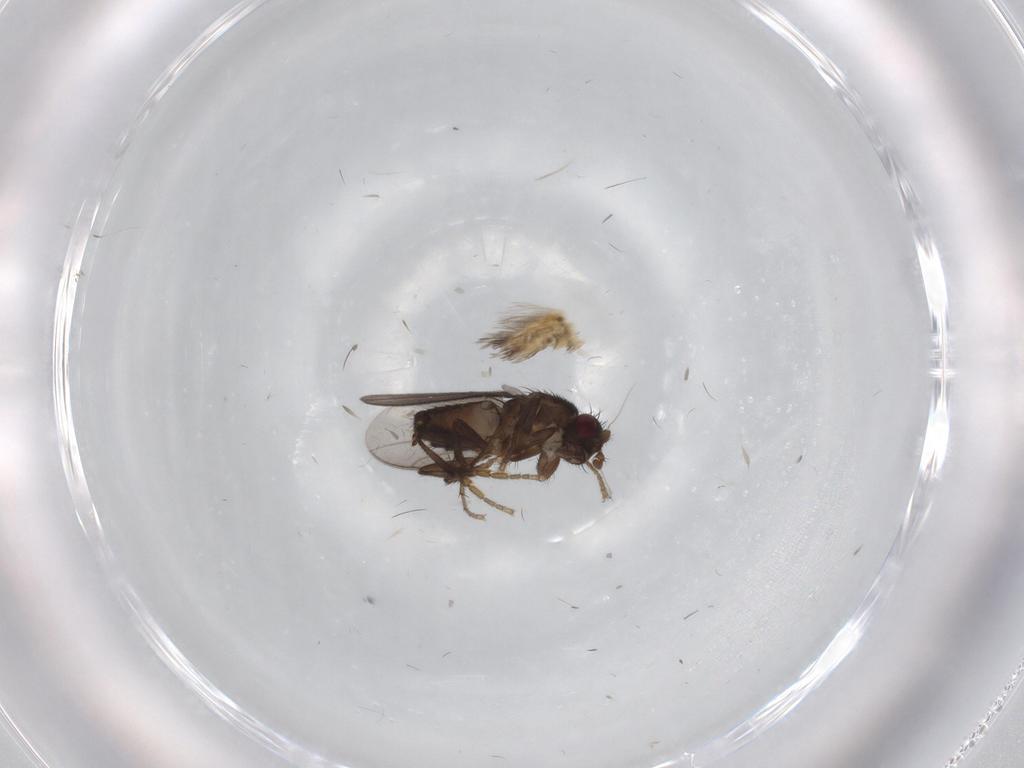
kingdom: Animalia
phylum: Arthropoda
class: Insecta
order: Diptera
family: Sphaeroceridae
